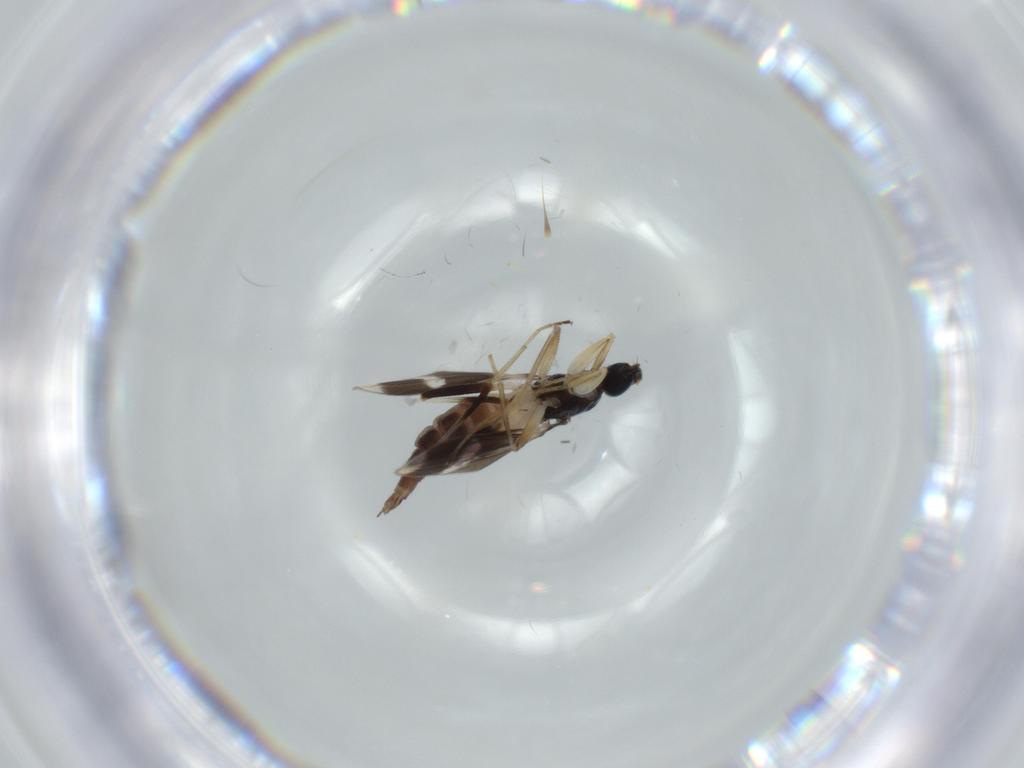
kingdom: Animalia
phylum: Arthropoda
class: Insecta
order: Diptera
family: Hybotidae
